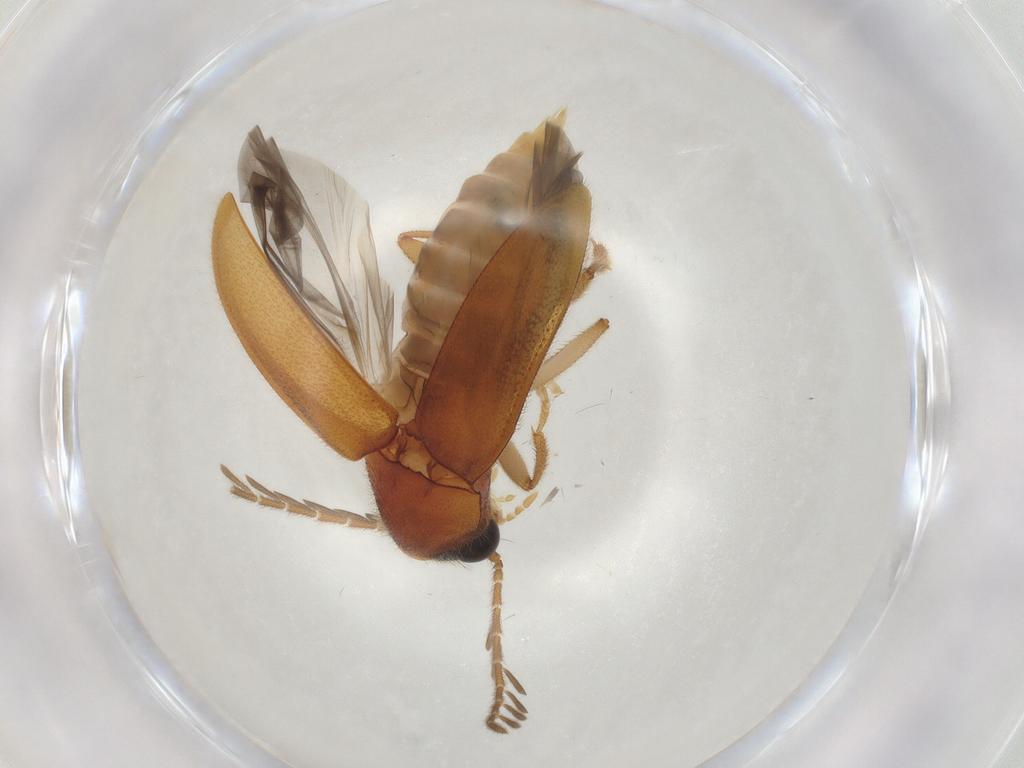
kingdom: Animalia
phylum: Arthropoda
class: Insecta
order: Coleoptera
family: Ptilodactylidae
